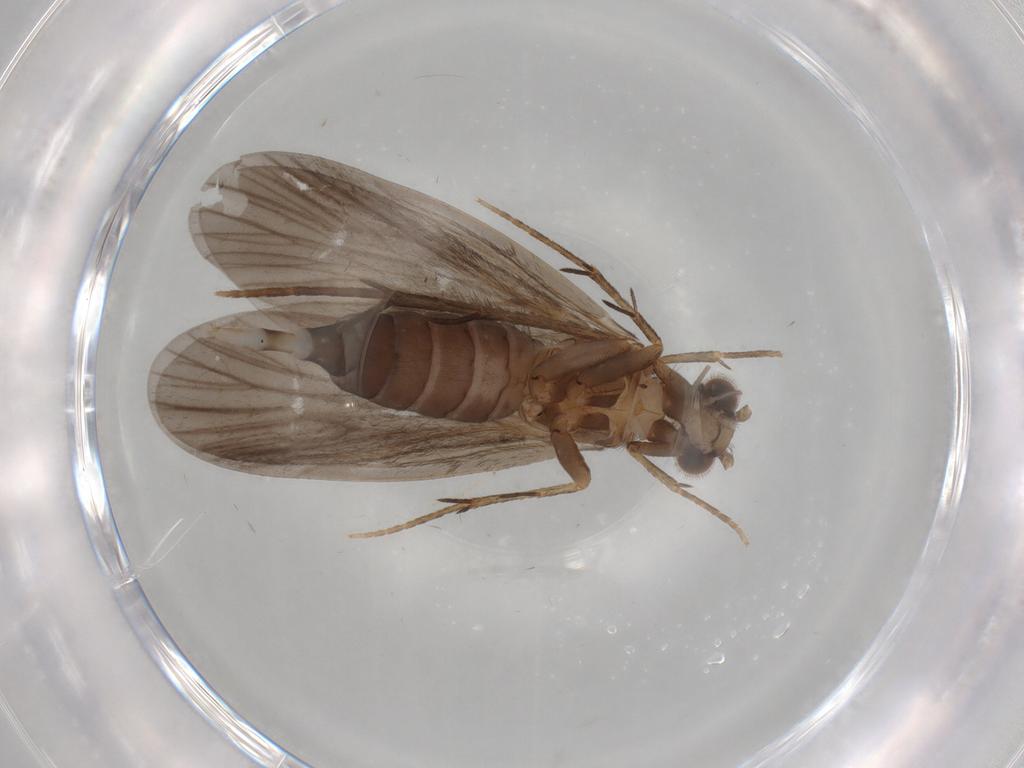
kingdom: Animalia
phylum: Arthropoda
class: Insecta
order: Trichoptera
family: Philopotamidae
